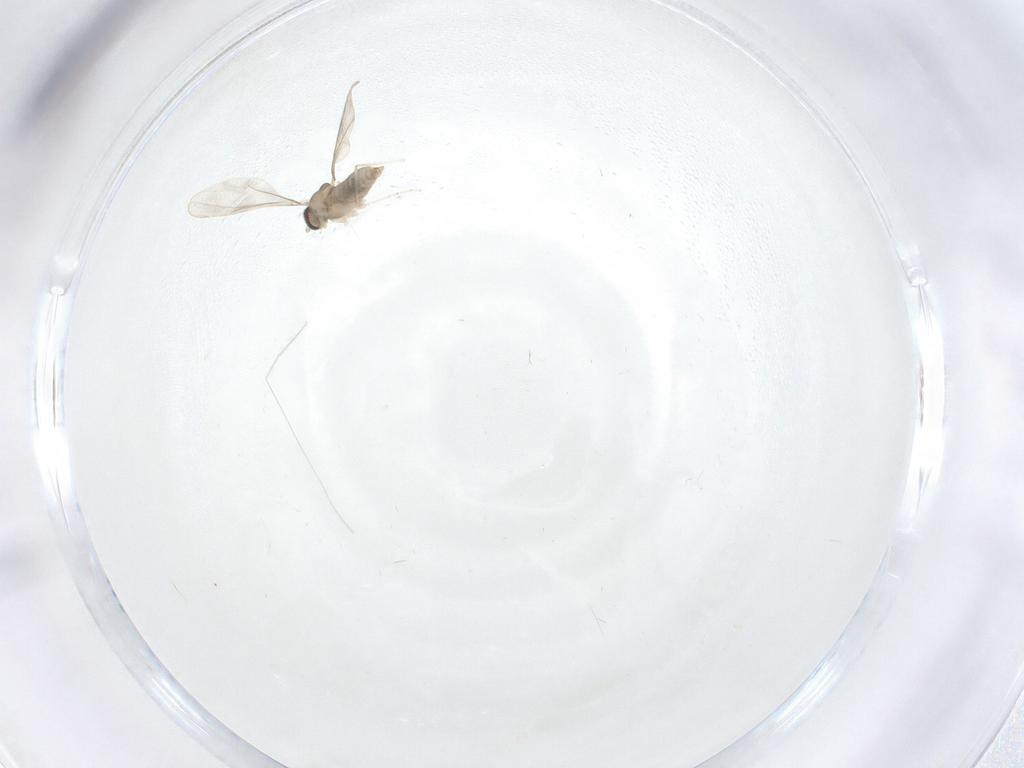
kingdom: Animalia
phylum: Arthropoda
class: Insecta
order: Diptera
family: Cecidomyiidae
